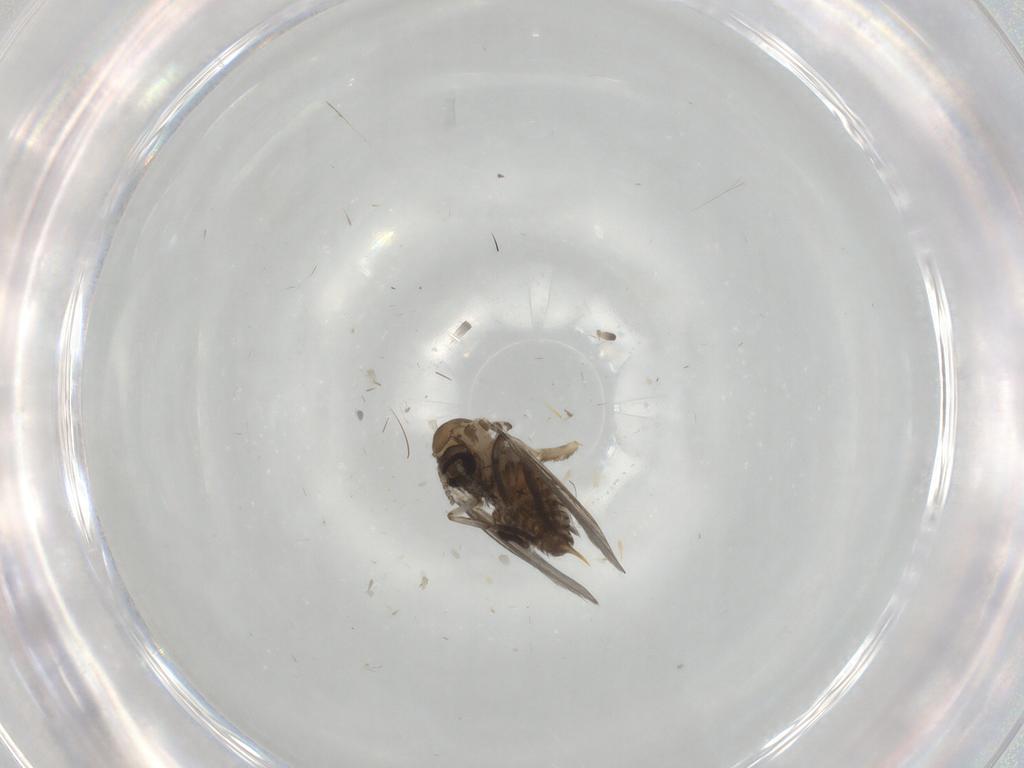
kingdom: Animalia
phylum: Arthropoda
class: Insecta
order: Diptera
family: Psychodidae
